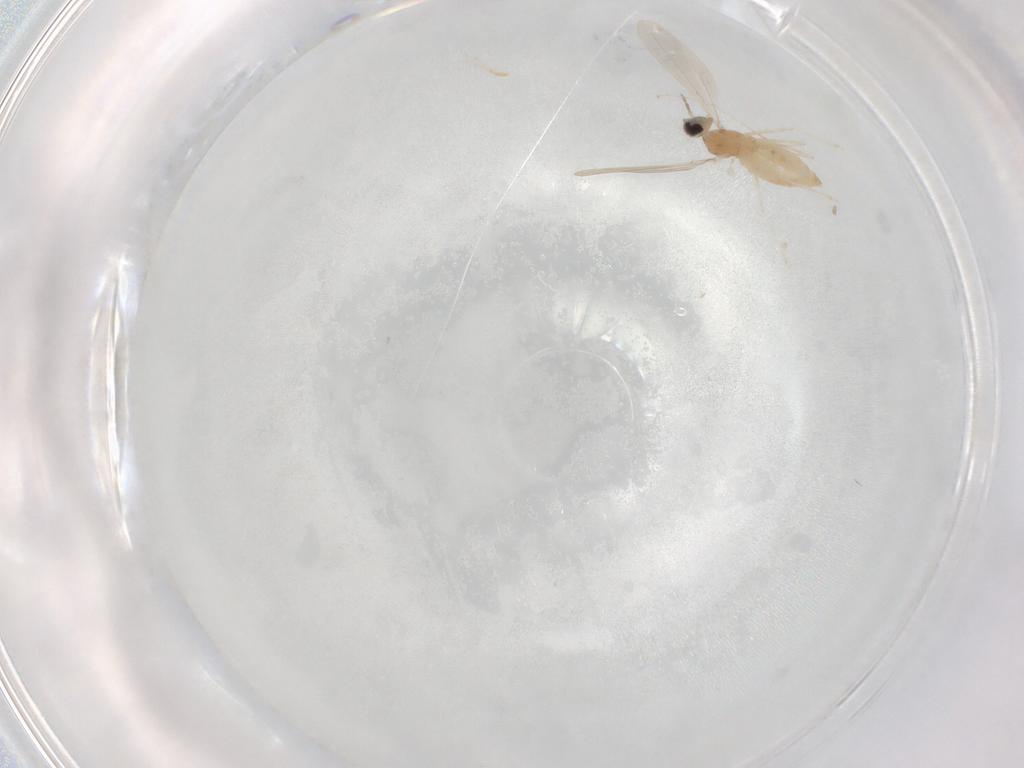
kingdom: Animalia
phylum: Arthropoda
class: Insecta
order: Diptera
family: Cecidomyiidae
